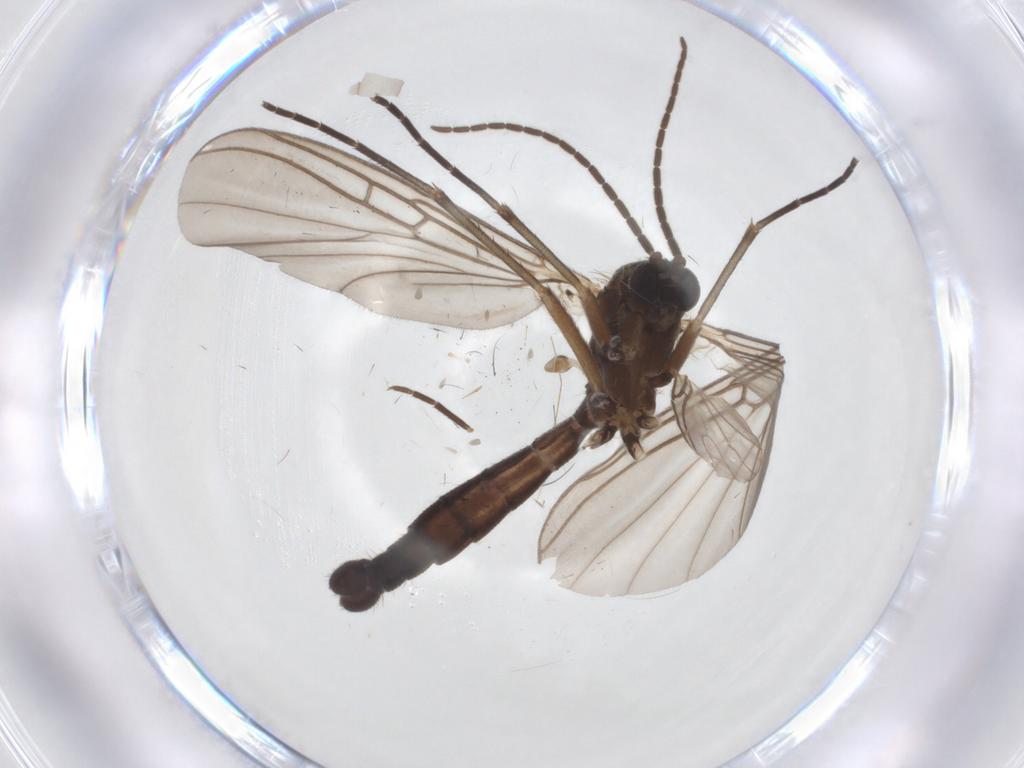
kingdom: Animalia
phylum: Arthropoda
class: Insecta
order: Diptera
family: Mycetophilidae
